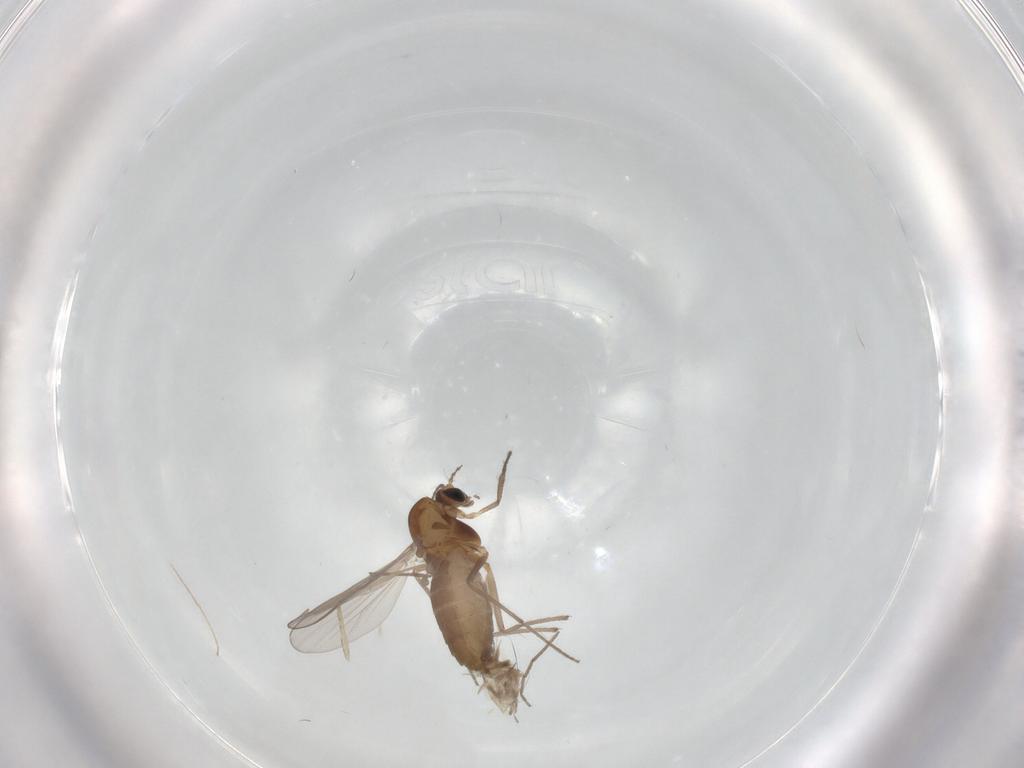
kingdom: Animalia
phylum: Arthropoda
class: Insecta
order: Diptera
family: Chironomidae
